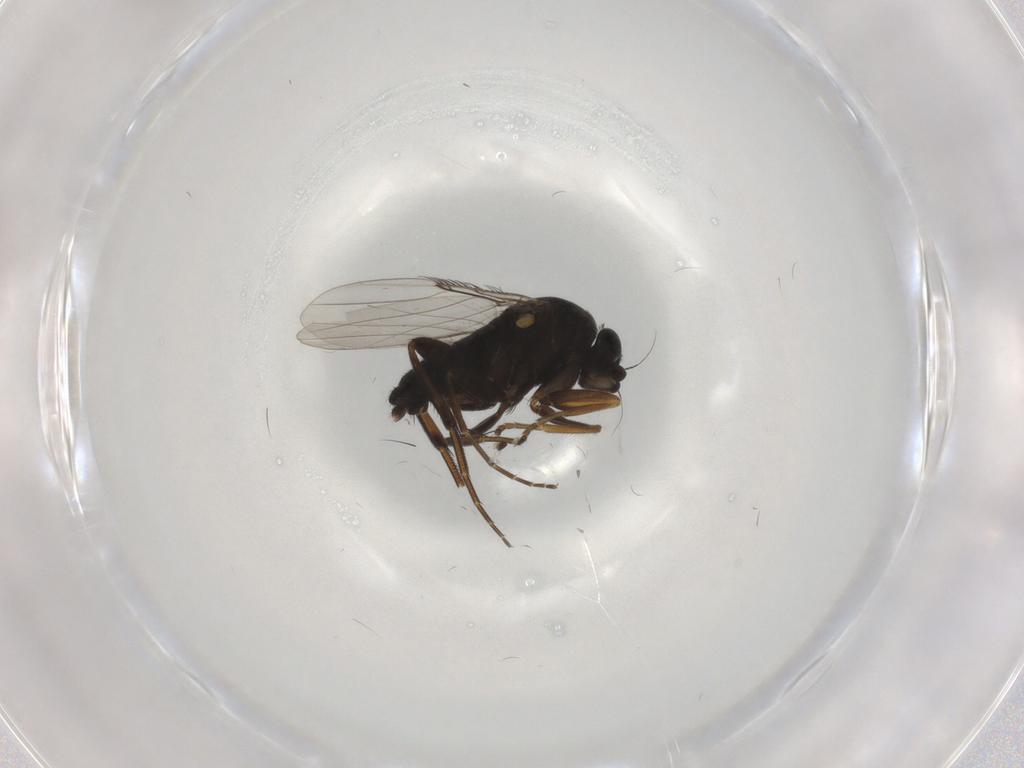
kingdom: Animalia
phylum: Arthropoda
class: Insecta
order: Diptera
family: Phoridae
